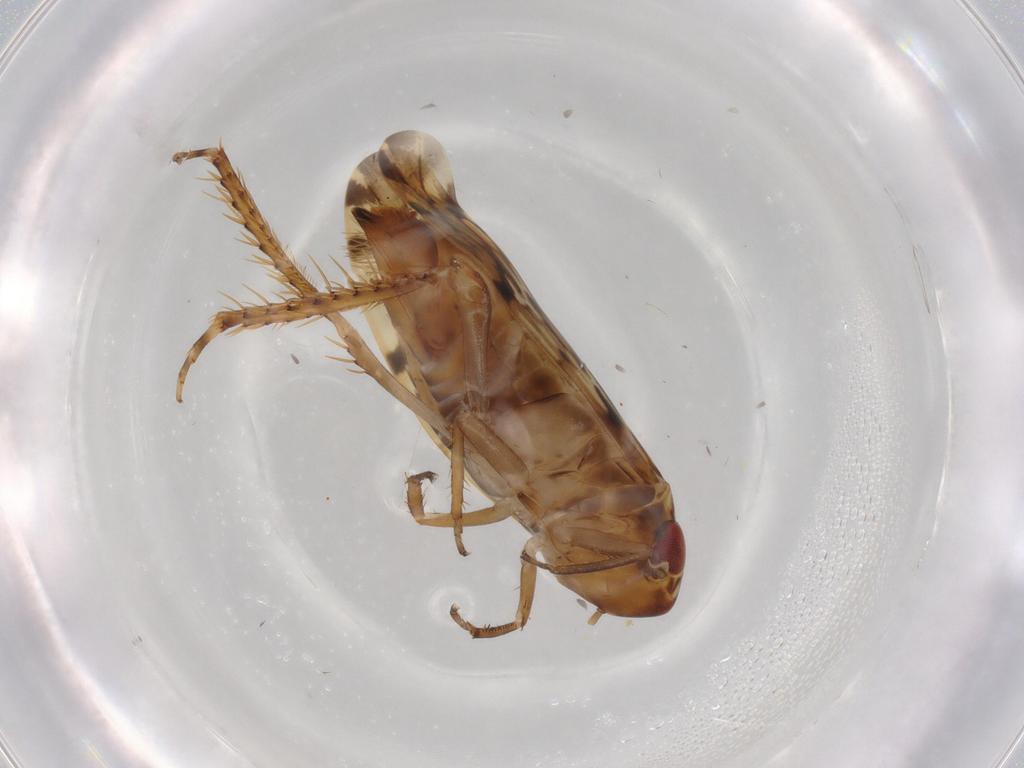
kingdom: Animalia
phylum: Arthropoda
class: Insecta
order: Hemiptera
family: Cicadellidae
